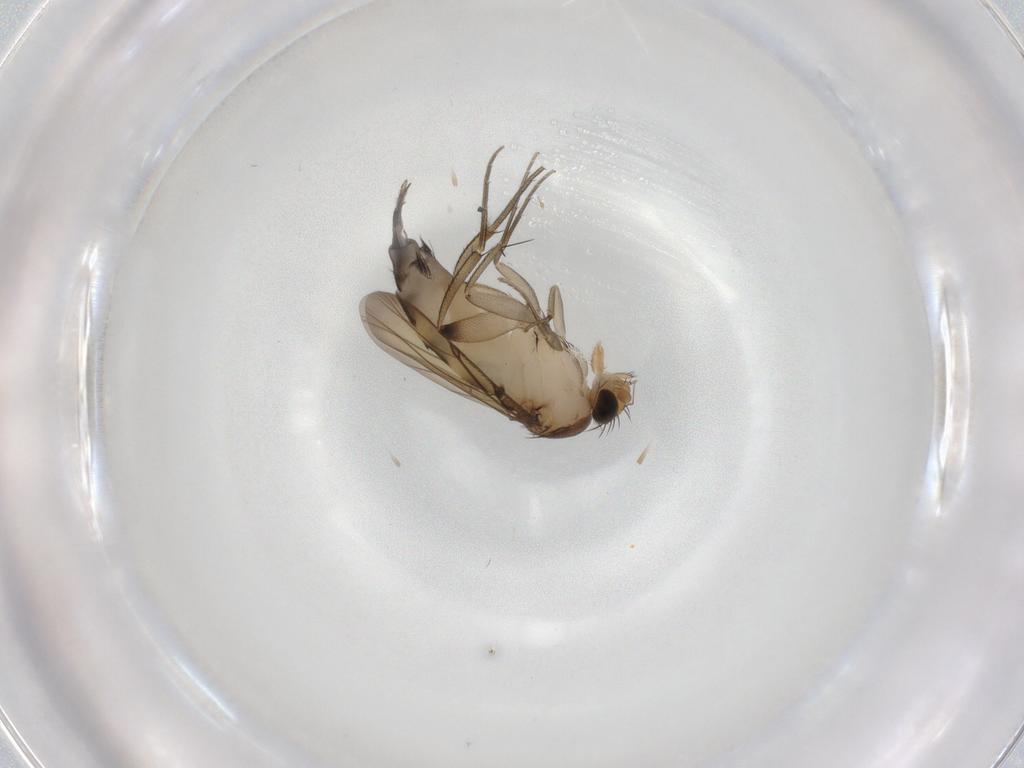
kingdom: Animalia
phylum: Arthropoda
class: Insecta
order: Diptera
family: Phoridae
